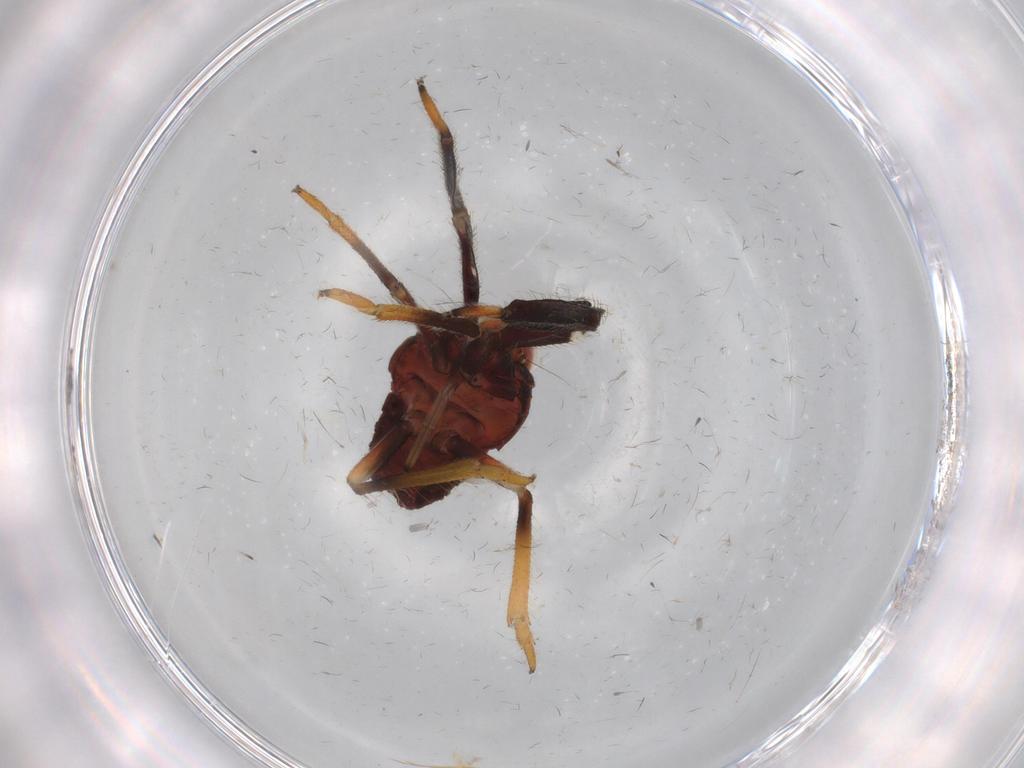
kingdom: Animalia
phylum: Arthropoda
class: Insecta
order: Hemiptera
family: Caliscelidae
